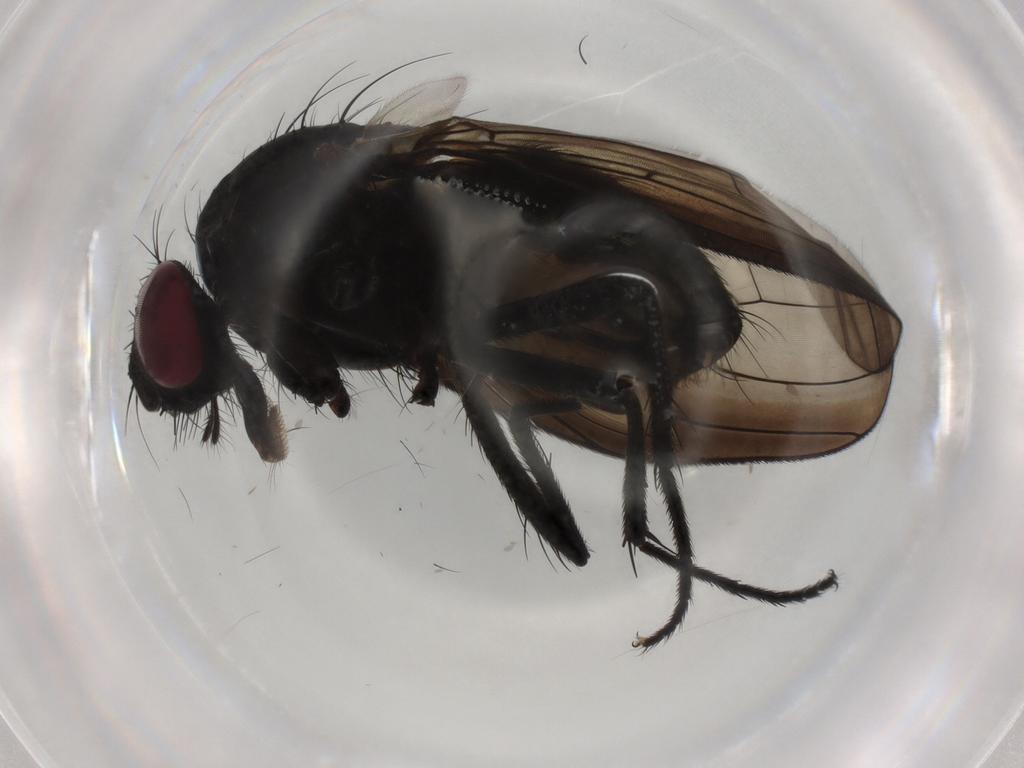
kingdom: Animalia
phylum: Arthropoda
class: Insecta
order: Diptera
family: Fannia
